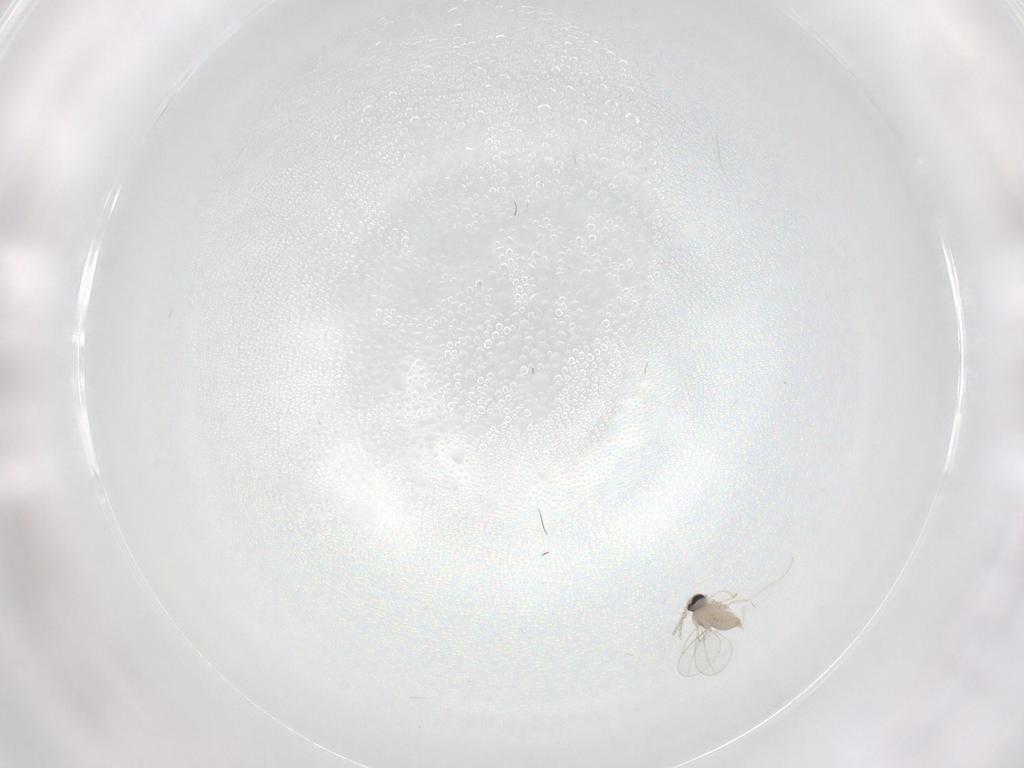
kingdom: Animalia
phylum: Arthropoda
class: Insecta
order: Diptera
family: Cecidomyiidae
